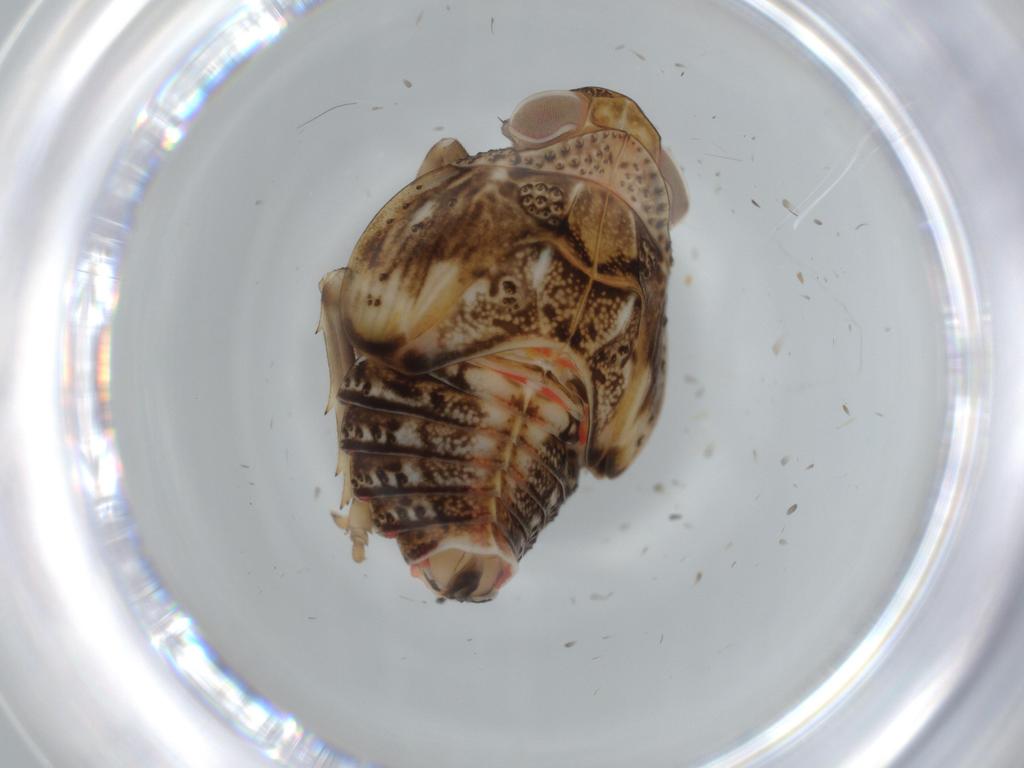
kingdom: Animalia
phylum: Arthropoda
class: Insecta
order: Hemiptera
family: Issidae
